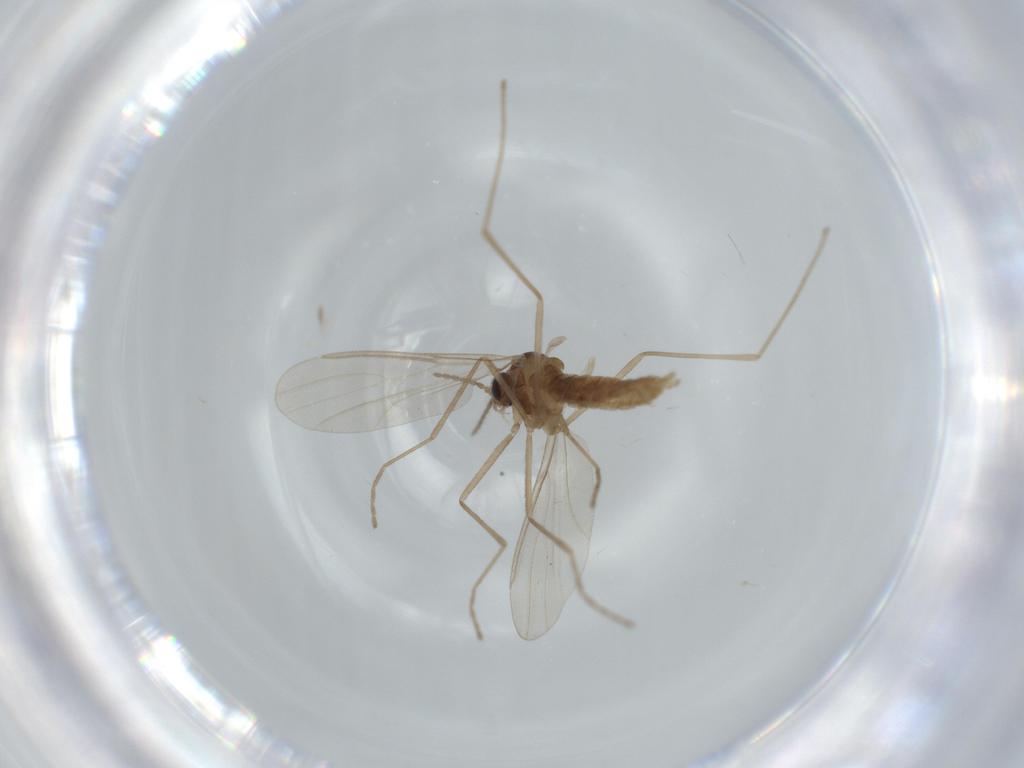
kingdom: Animalia
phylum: Arthropoda
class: Insecta
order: Diptera
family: Cecidomyiidae
